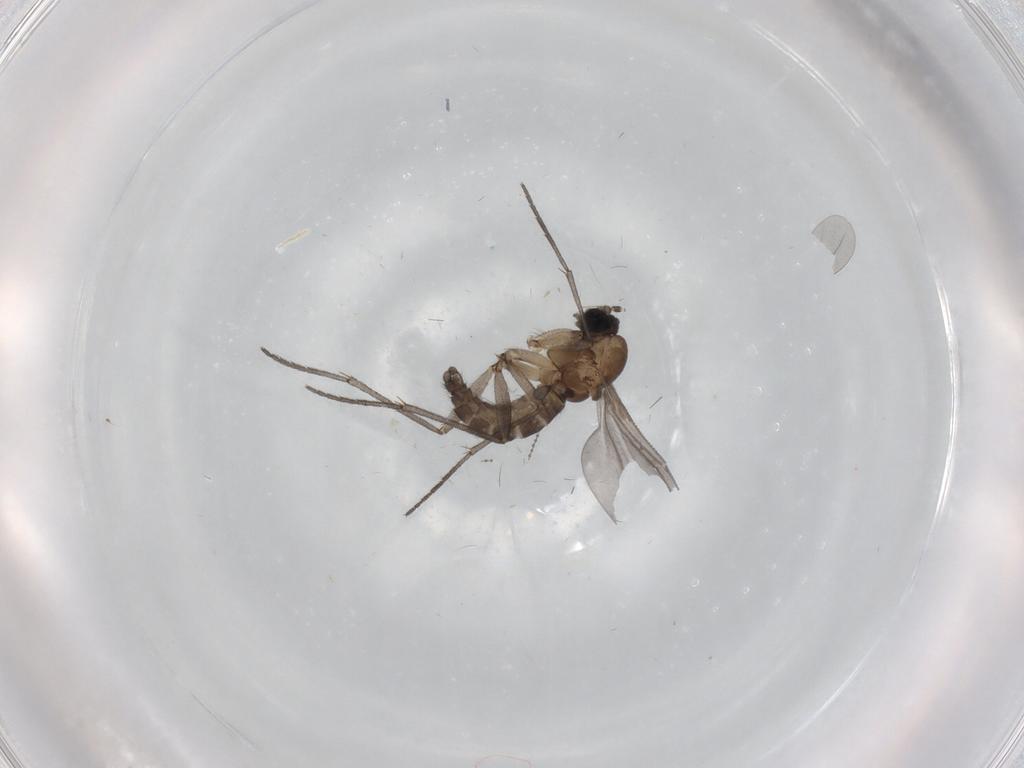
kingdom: Animalia
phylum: Arthropoda
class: Insecta
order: Diptera
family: Sciaridae
